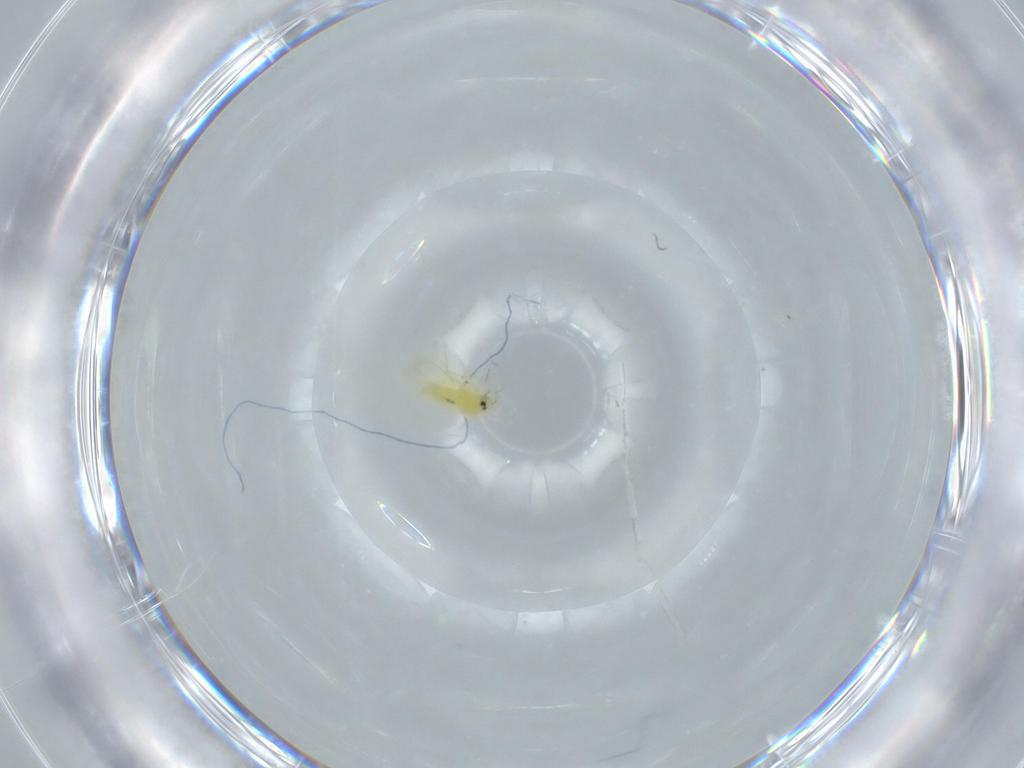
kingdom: Animalia
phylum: Arthropoda
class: Insecta
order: Hemiptera
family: Aleyrodidae
